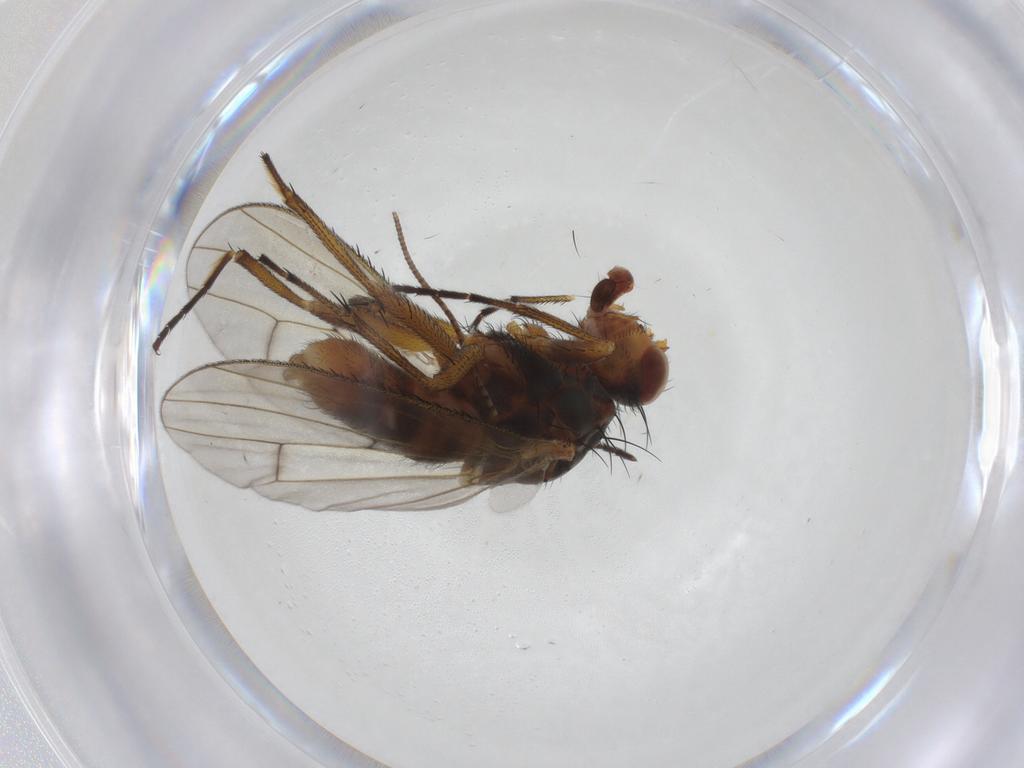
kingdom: Animalia
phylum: Arthropoda
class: Insecta
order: Diptera
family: Heleomyzidae
